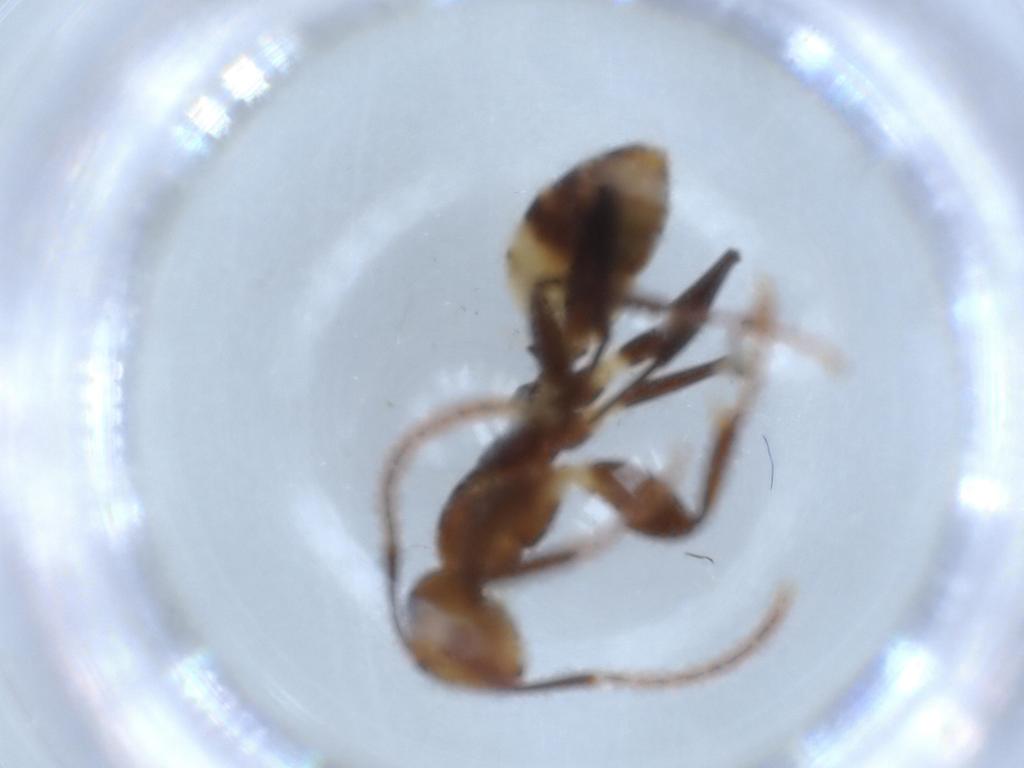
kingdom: Animalia
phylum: Arthropoda
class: Insecta
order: Hymenoptera
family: Formicidae
